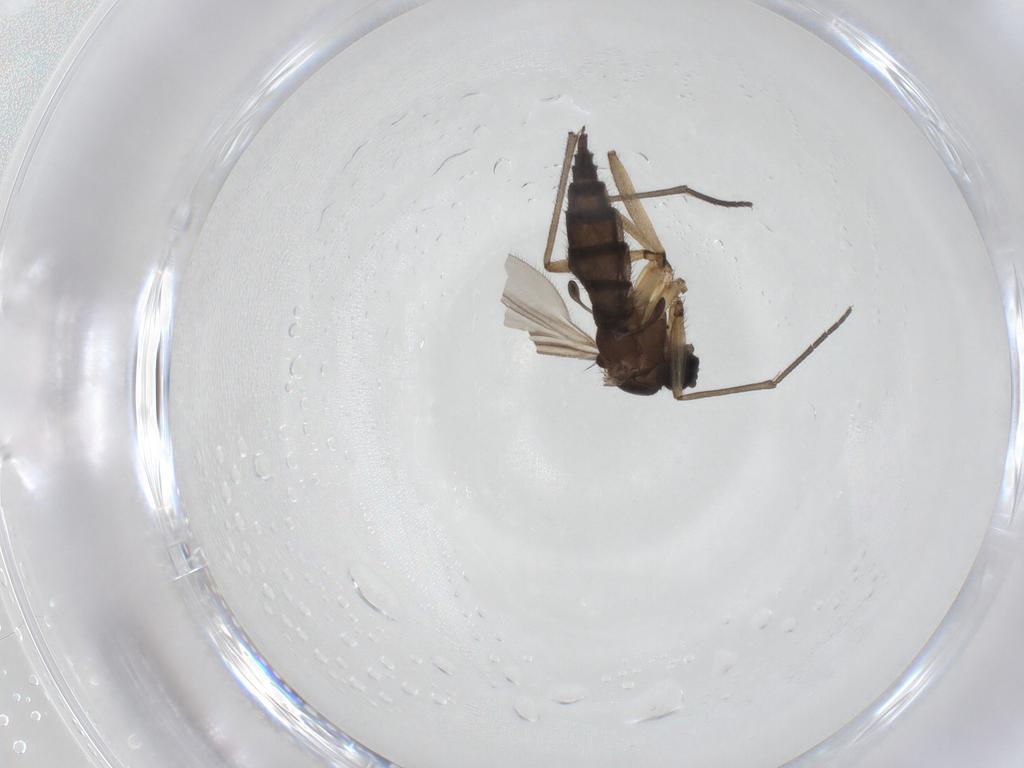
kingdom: Animalia
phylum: Arthropoda
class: Insecta
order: Diptera
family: Sciaridae
